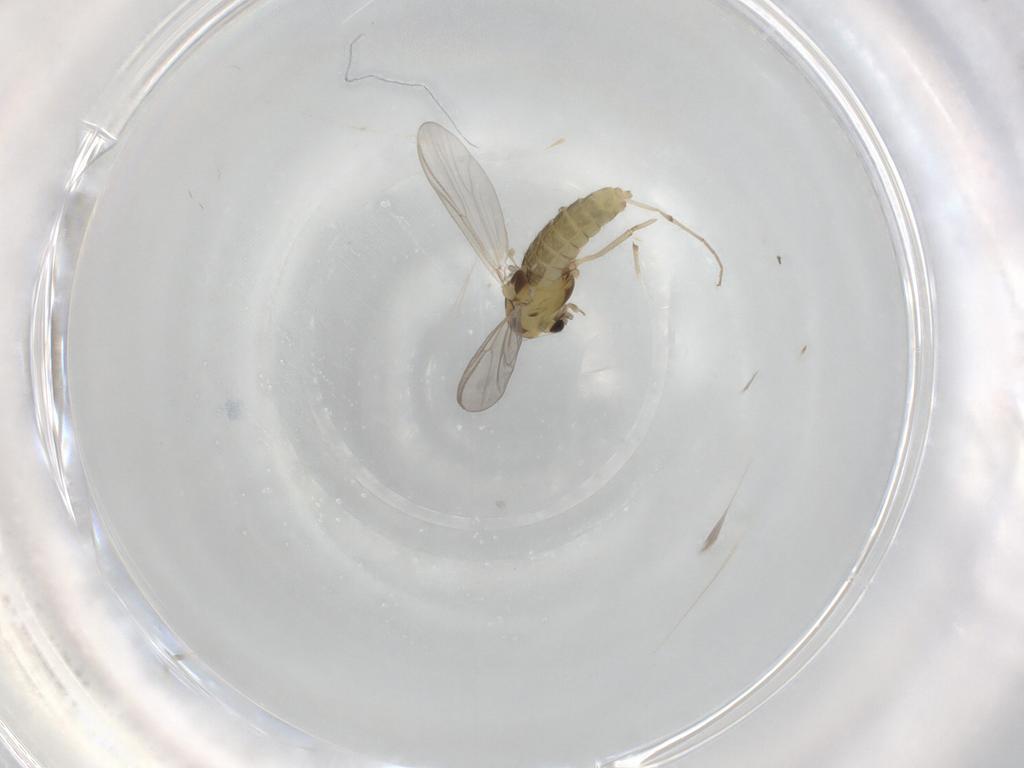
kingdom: Animalia
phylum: Arthropoda
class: Insecta
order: Diptera
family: Chironomidae
